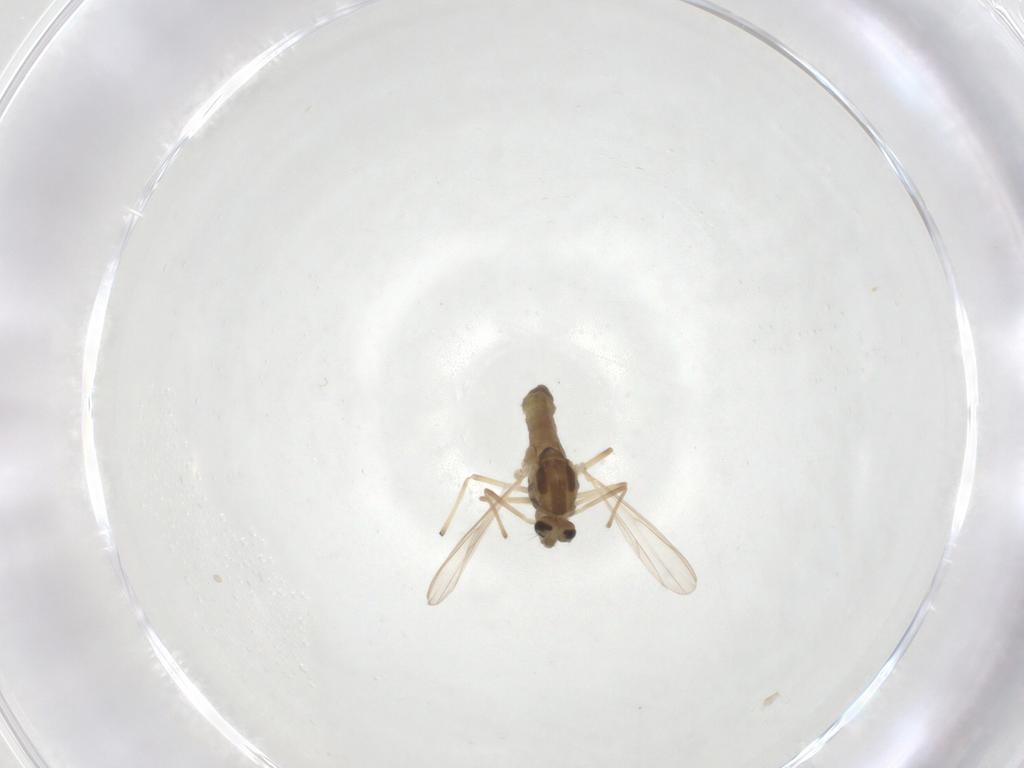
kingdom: Animalia
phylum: Arthropoda
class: Insecta
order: Diptera
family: Chironomidae
